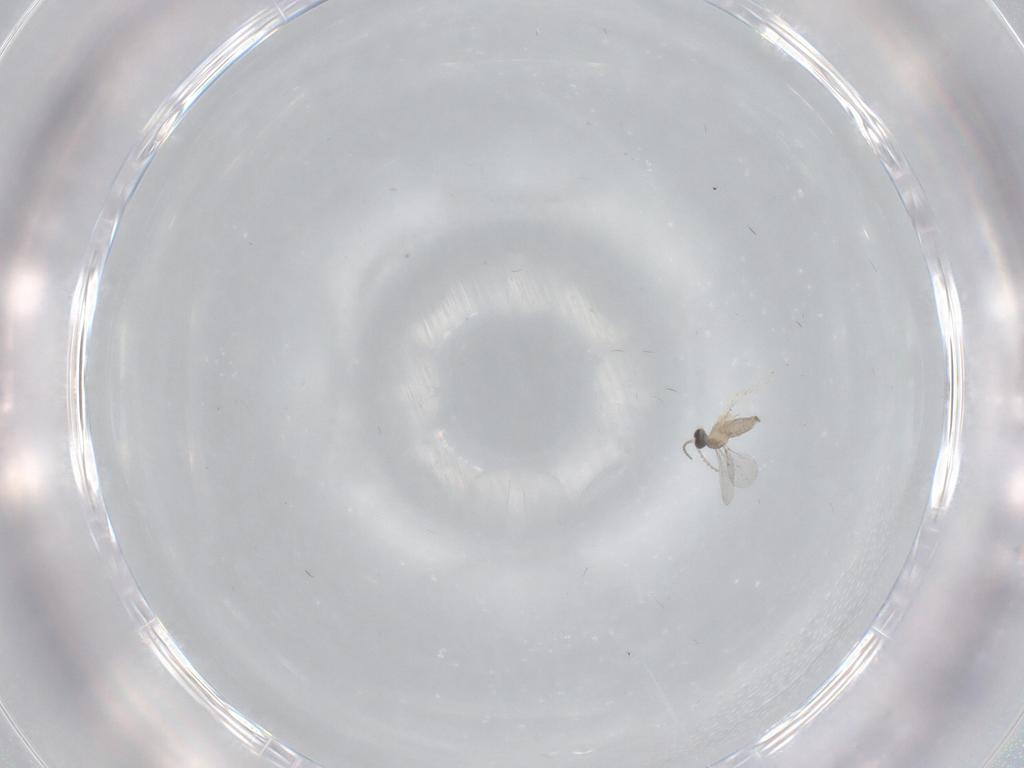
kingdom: Animalia
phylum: Arthropoda
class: Insecta
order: Diptera
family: Cecidomyiidae
